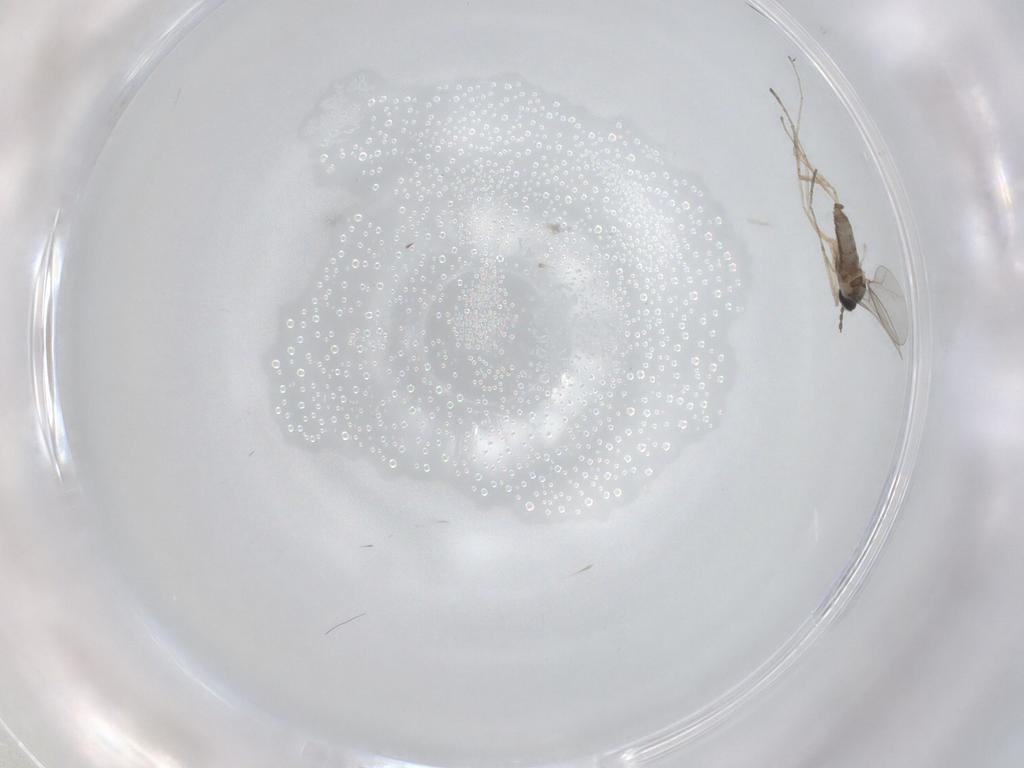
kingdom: Animalia
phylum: Arthropoda
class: Insecta
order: Diptera
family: Cecidomyiidae
